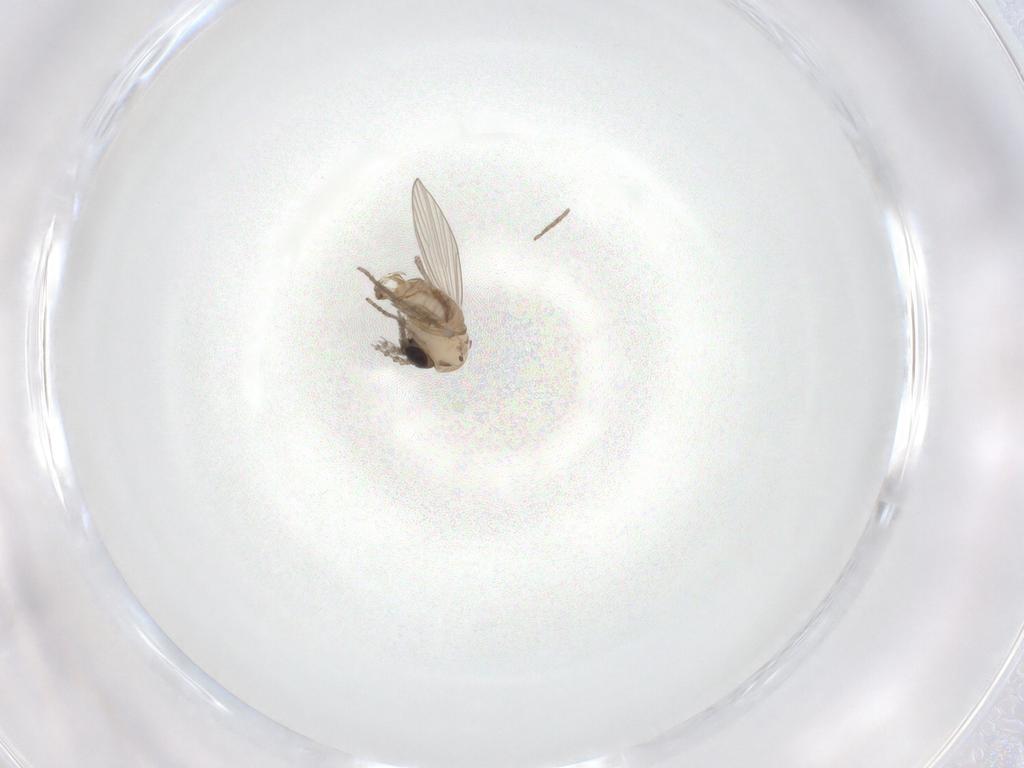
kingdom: Animalia
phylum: Arthropoda
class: Insecta
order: Diptera
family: Psychodidae
